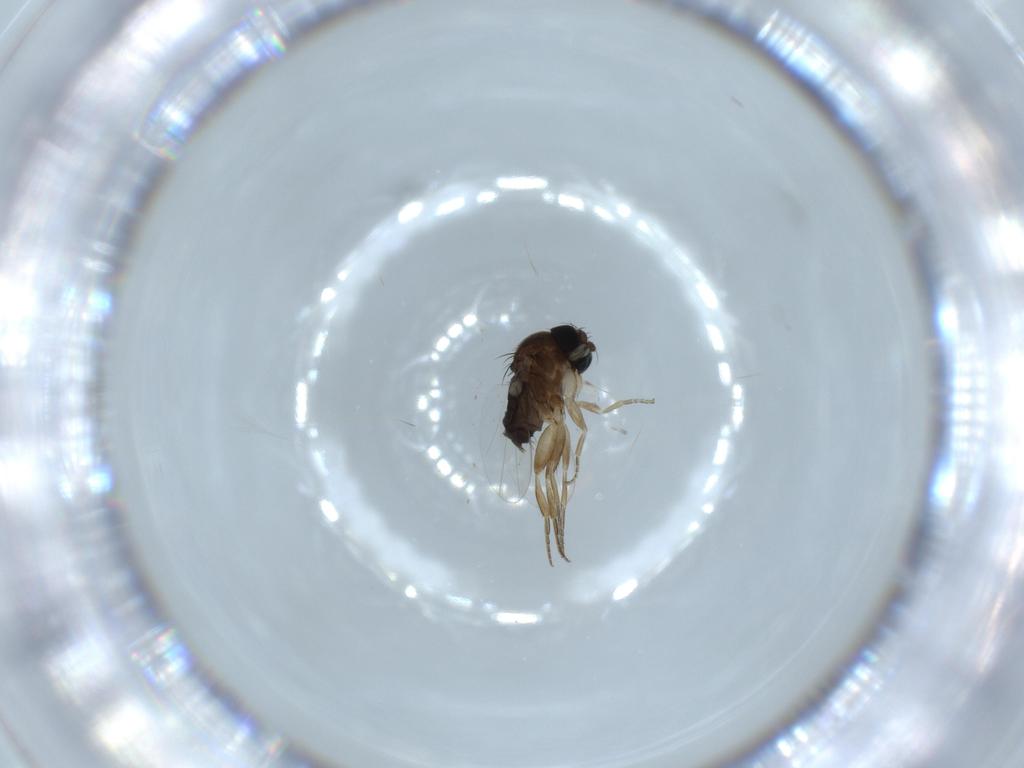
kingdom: Animalia
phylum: Arthropoda
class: Insecta
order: Diptera
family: Phoridae
